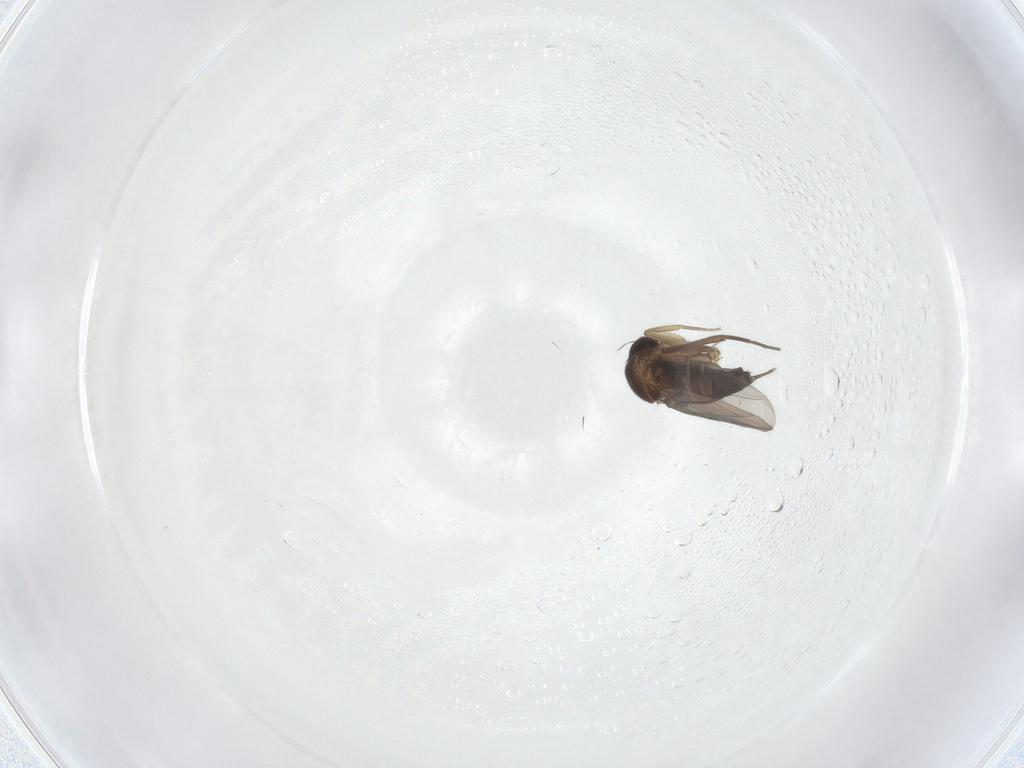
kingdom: Animalia
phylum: Arthropoda
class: Insecta
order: Diptera
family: Phoridae
